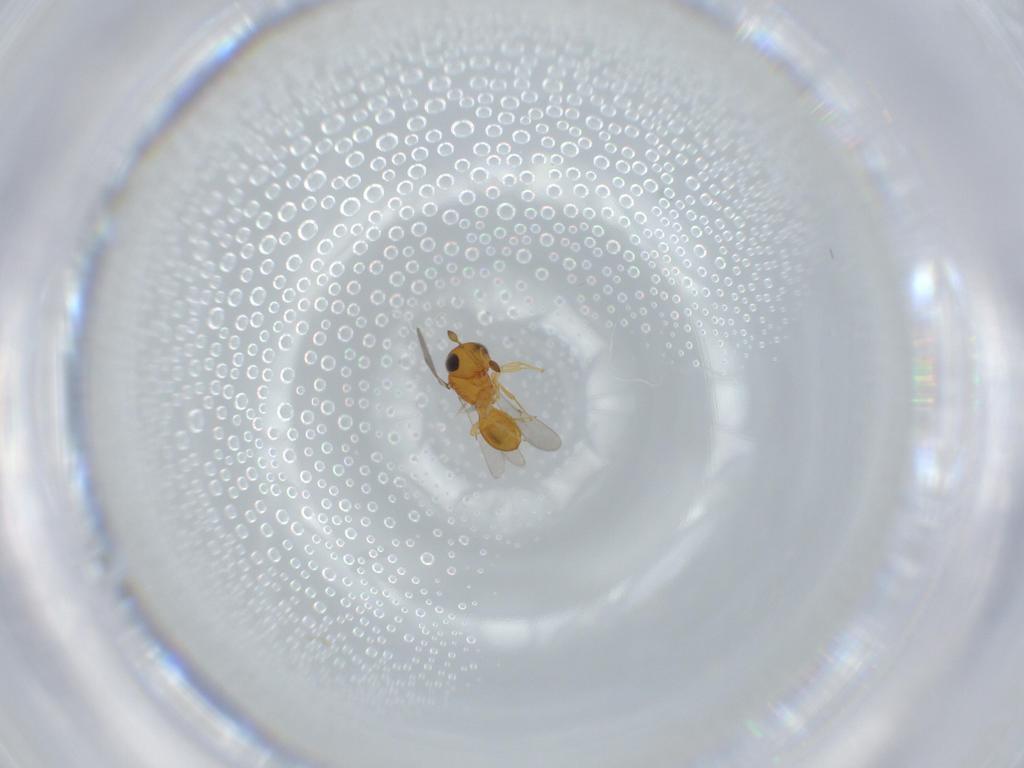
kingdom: Animalia
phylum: Arthropoda
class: Insecta
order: Hymenoptera
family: Scelionidae
